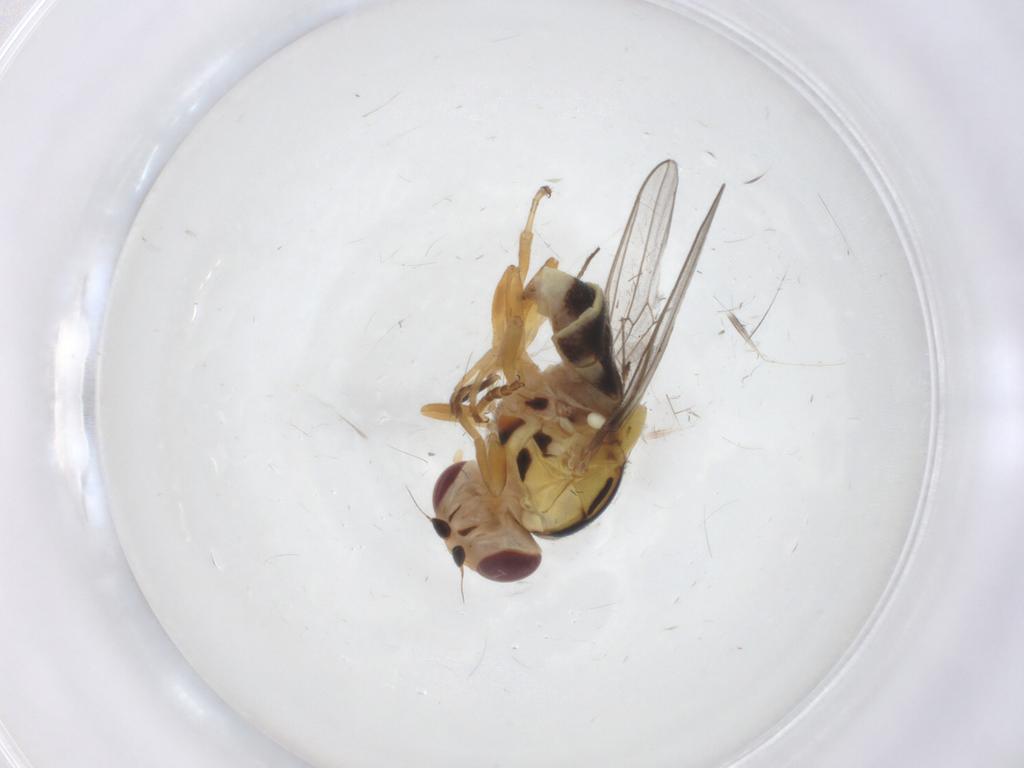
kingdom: Animalia
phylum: Arthropoda
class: Insecta
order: Diptera
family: Chloropidae
